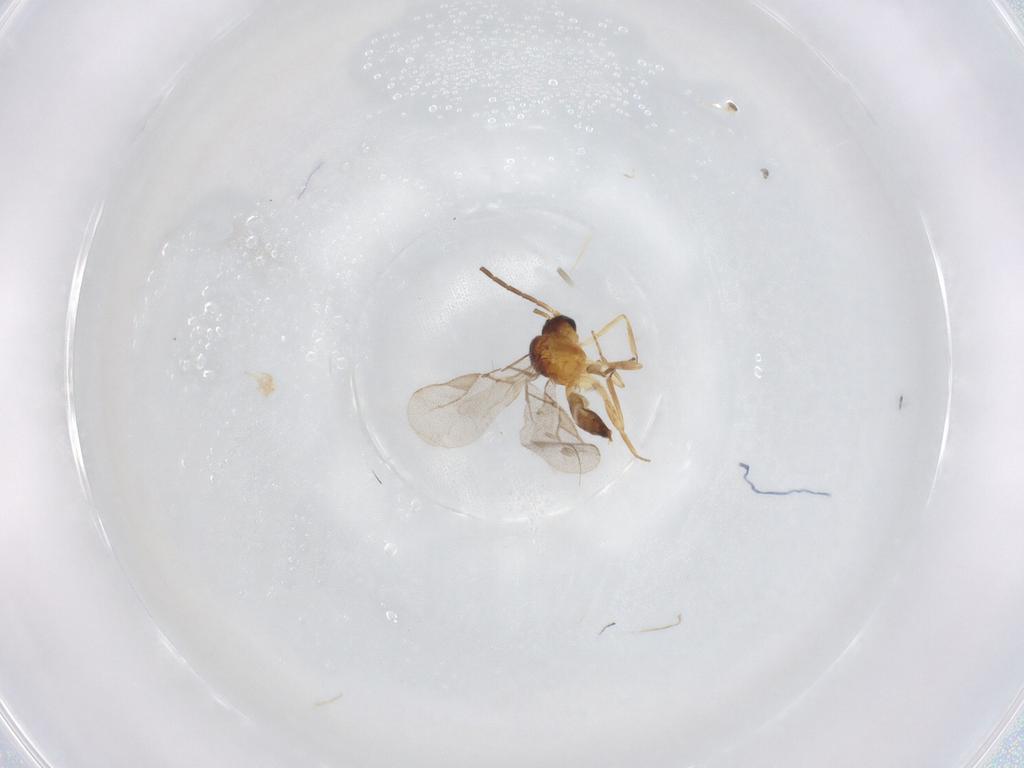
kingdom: Animalia
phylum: Arthropoda
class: Insecta
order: Hymenoptera
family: Braconidae
